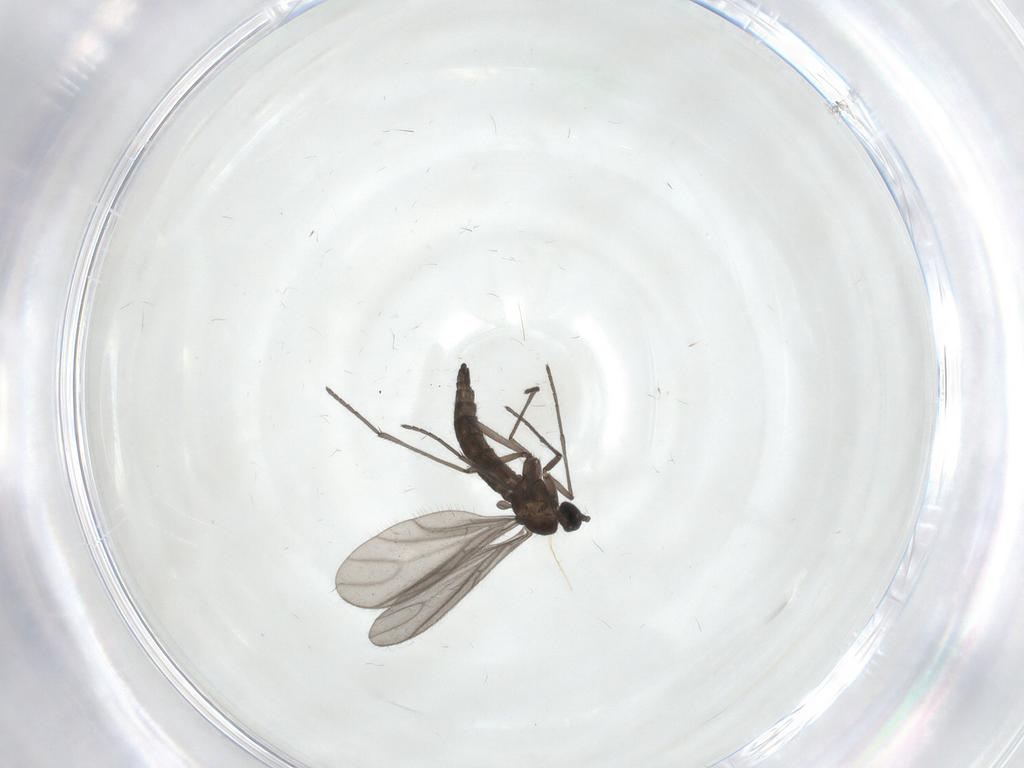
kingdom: Animalia
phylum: Arthropoda
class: Insecta
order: Diptera
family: Sciaridae
